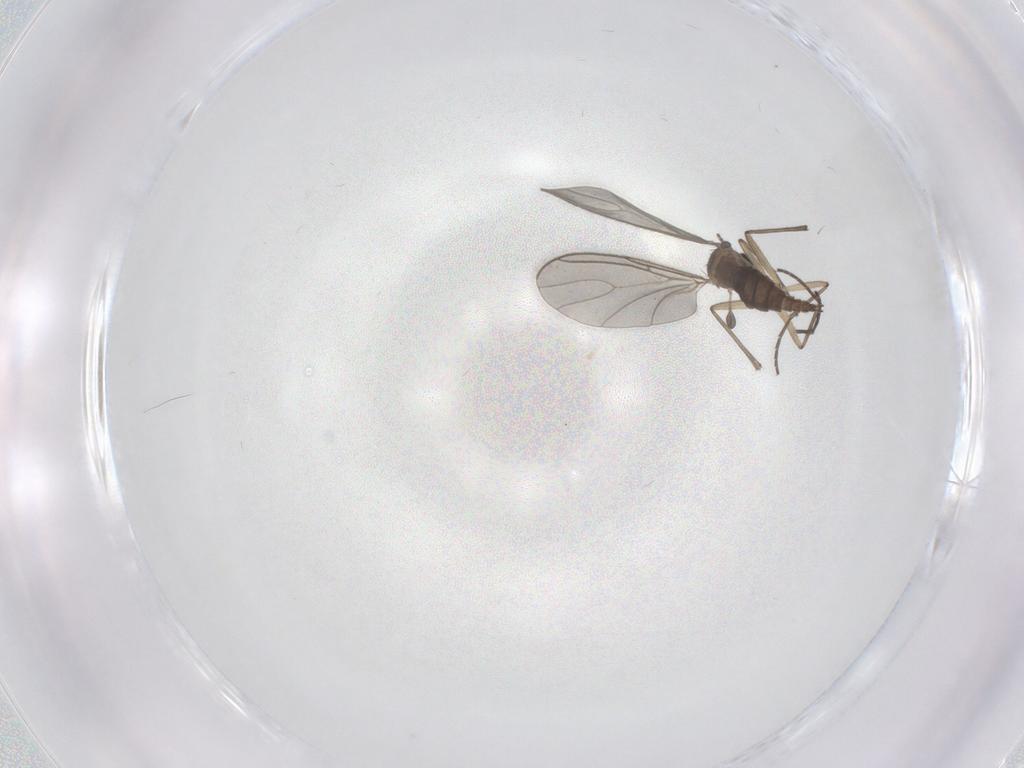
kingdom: Animalia
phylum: Arthropoda
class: Insecta
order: Diptera
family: Sciaridae
